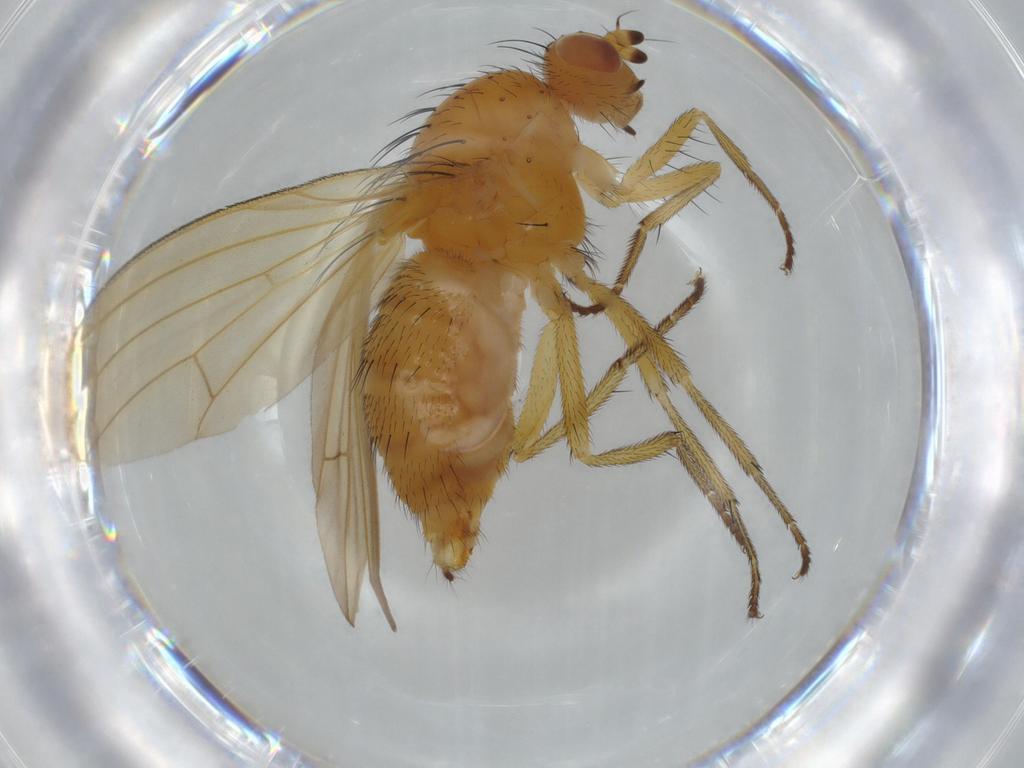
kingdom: Animalia
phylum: Arthropoda
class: Insecta
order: Diptera
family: Lauxaniidae
